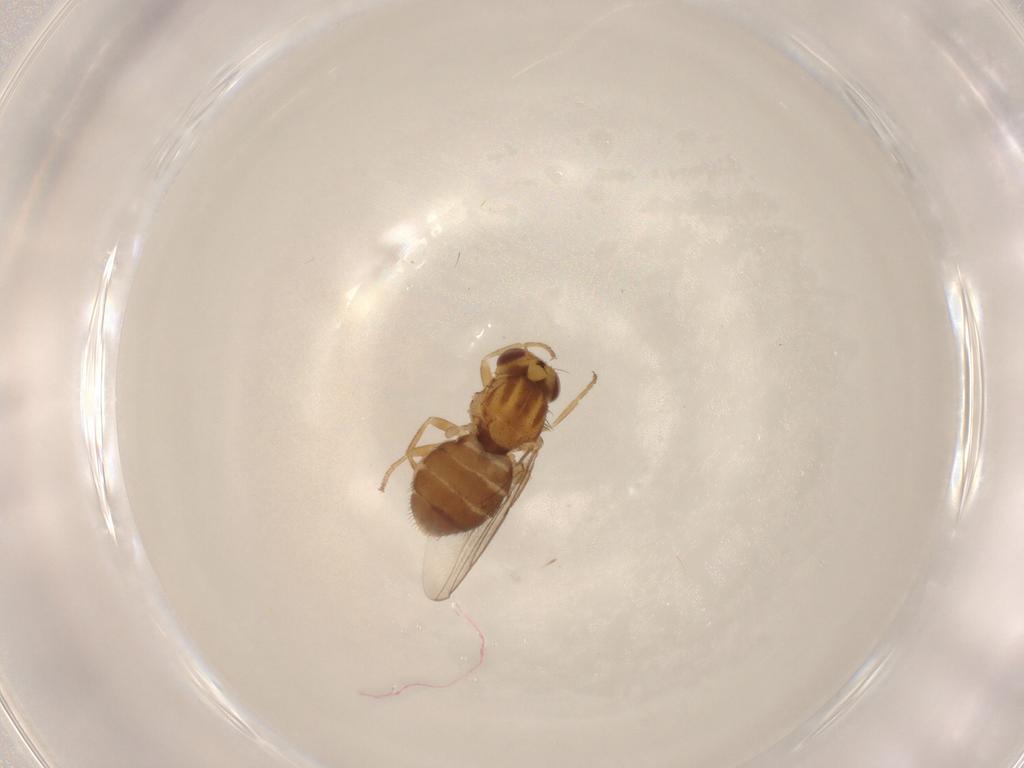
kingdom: Animalia
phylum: Arthropoda
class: Insecta
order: Diptera
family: Chloropidae
